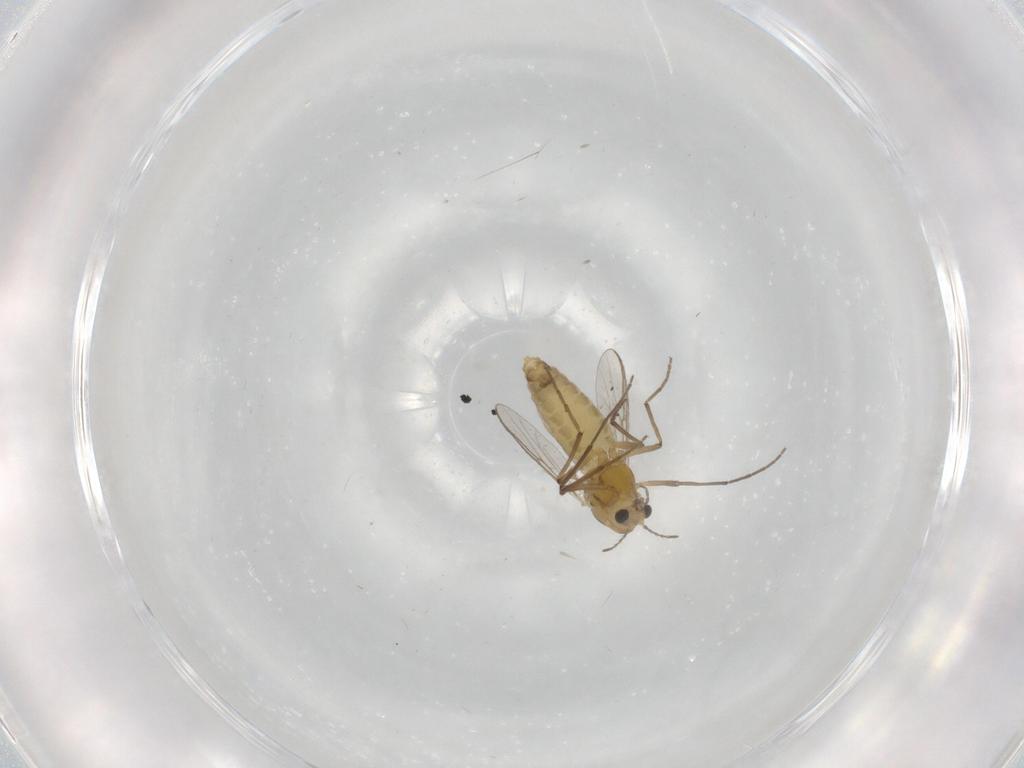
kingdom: Animalia
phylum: Arthropoda
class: Insecta
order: Diptera
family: Chironomidae
